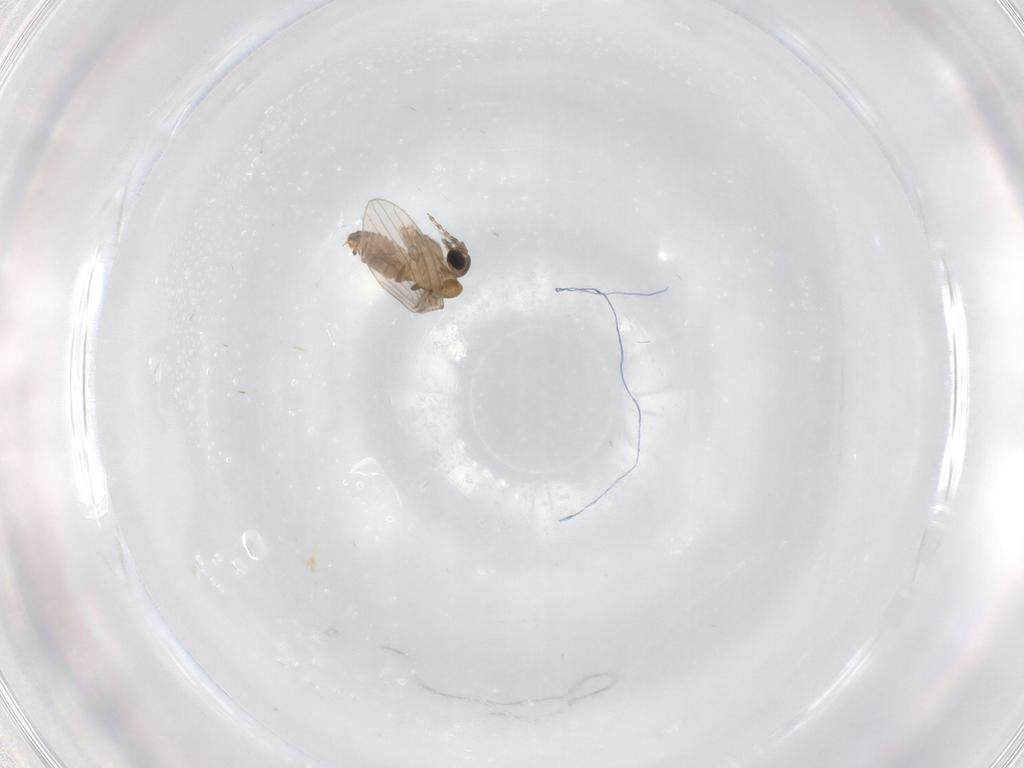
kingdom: Animalia
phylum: Arthropoda
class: Insecta
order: Diptera
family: Psychodidae
